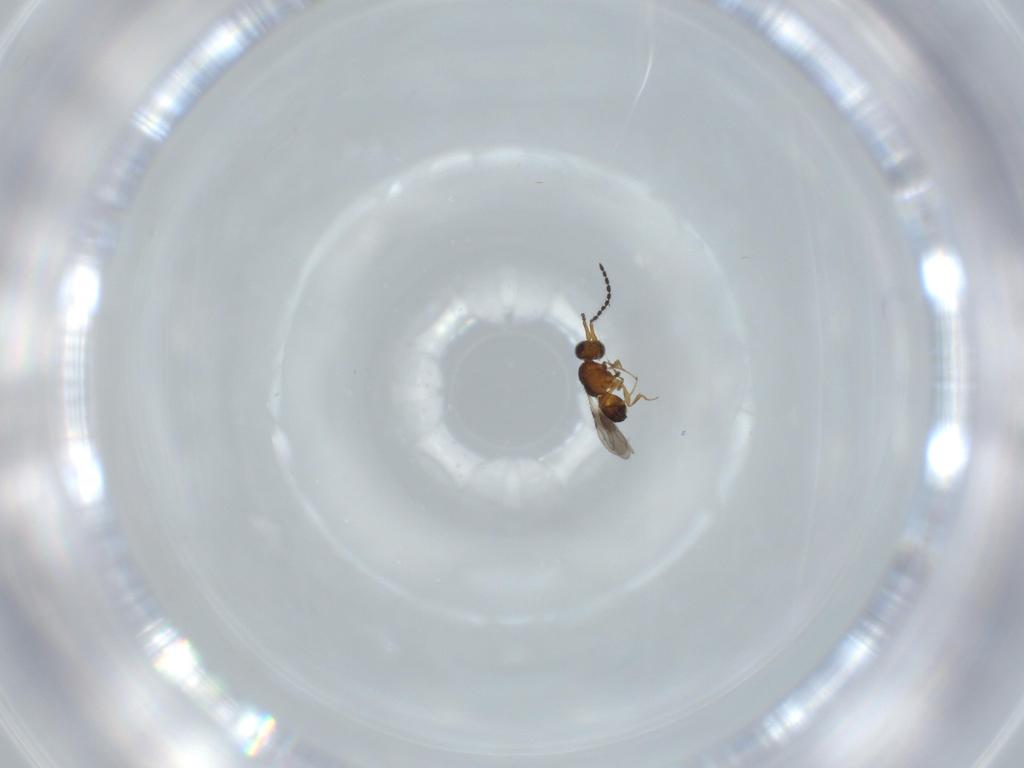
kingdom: Animalia
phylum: Arthropoda
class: Insecta
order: Hymenoptera
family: Ceraphronidae
